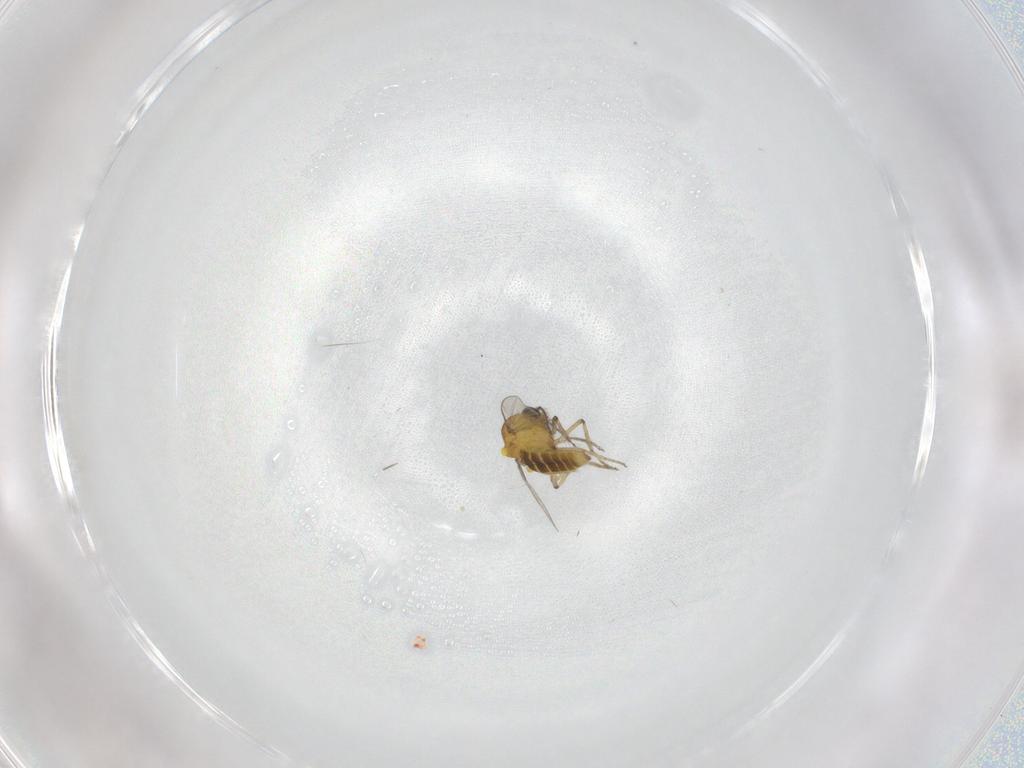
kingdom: Animalia
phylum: Arthropoda
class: Insecta
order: Diptera
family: Ceratopogonidae
